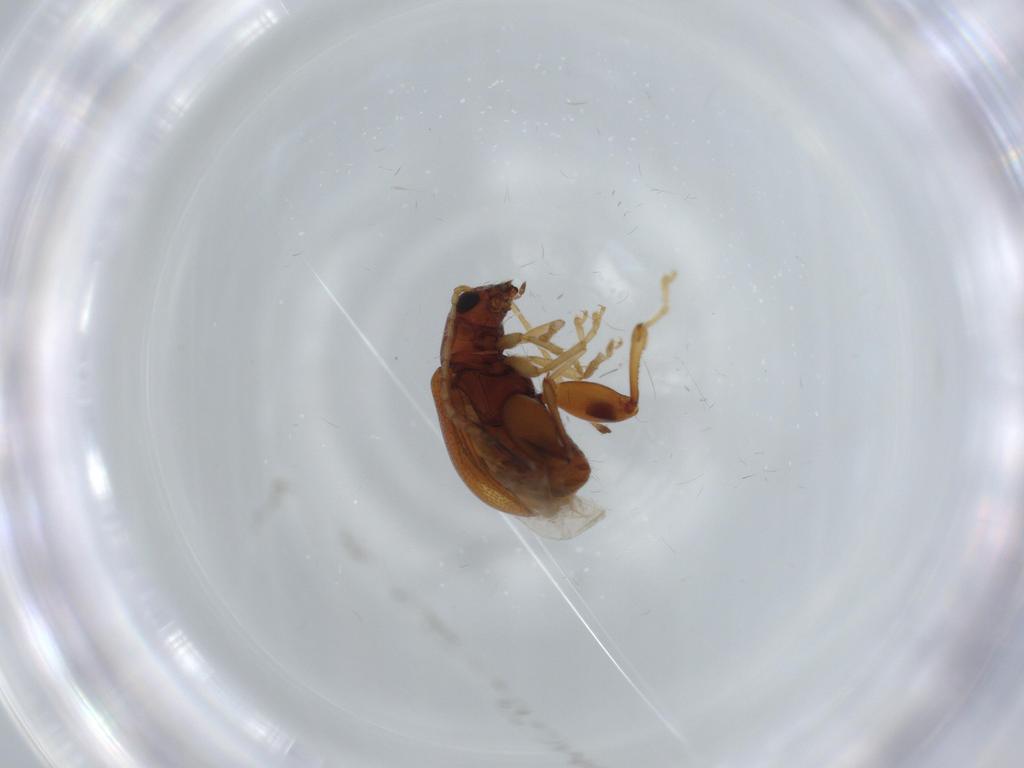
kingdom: Animalia
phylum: Arthropoda
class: Insecta
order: Coleoptera
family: Chrysomelidae
